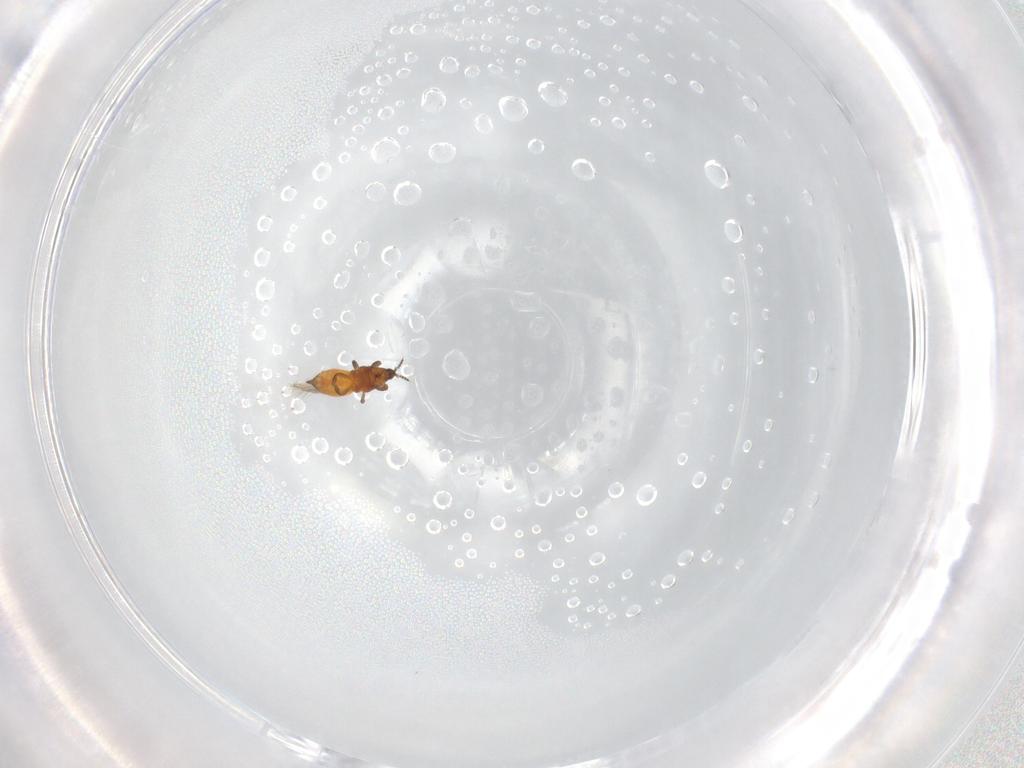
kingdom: Animalia
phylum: Arthropoda
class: Insecta
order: Thysanoptera
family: Thripidae
